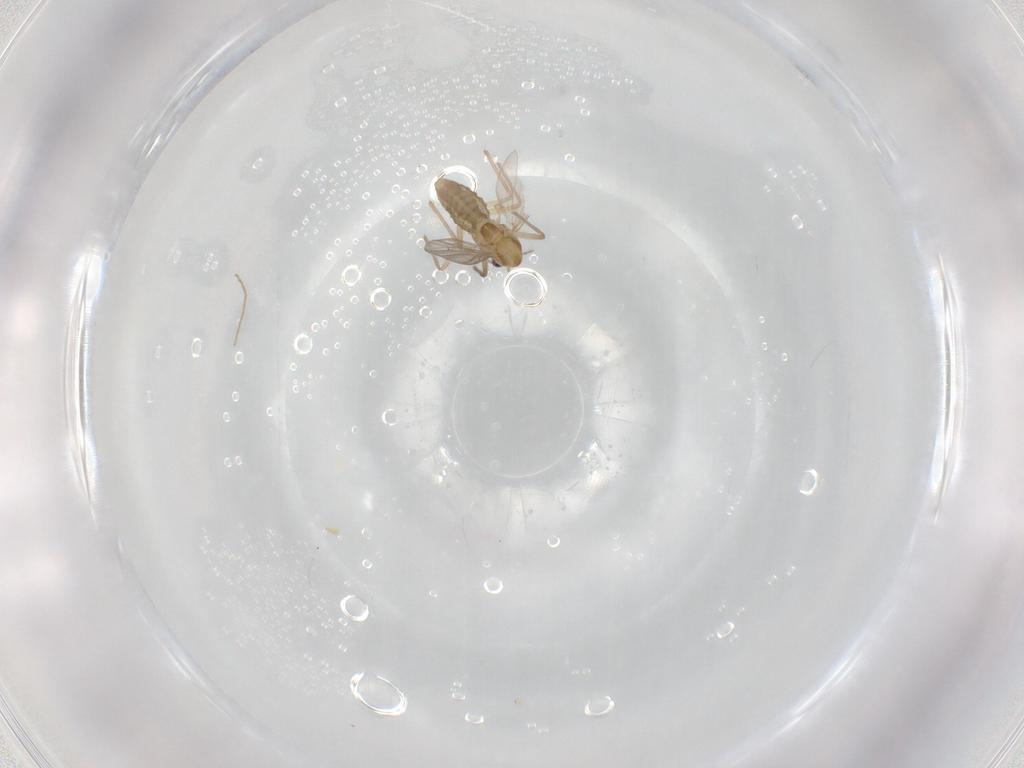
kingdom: Animalia
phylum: Arthropoda
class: Insecta
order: Diptera
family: Chironomidae
